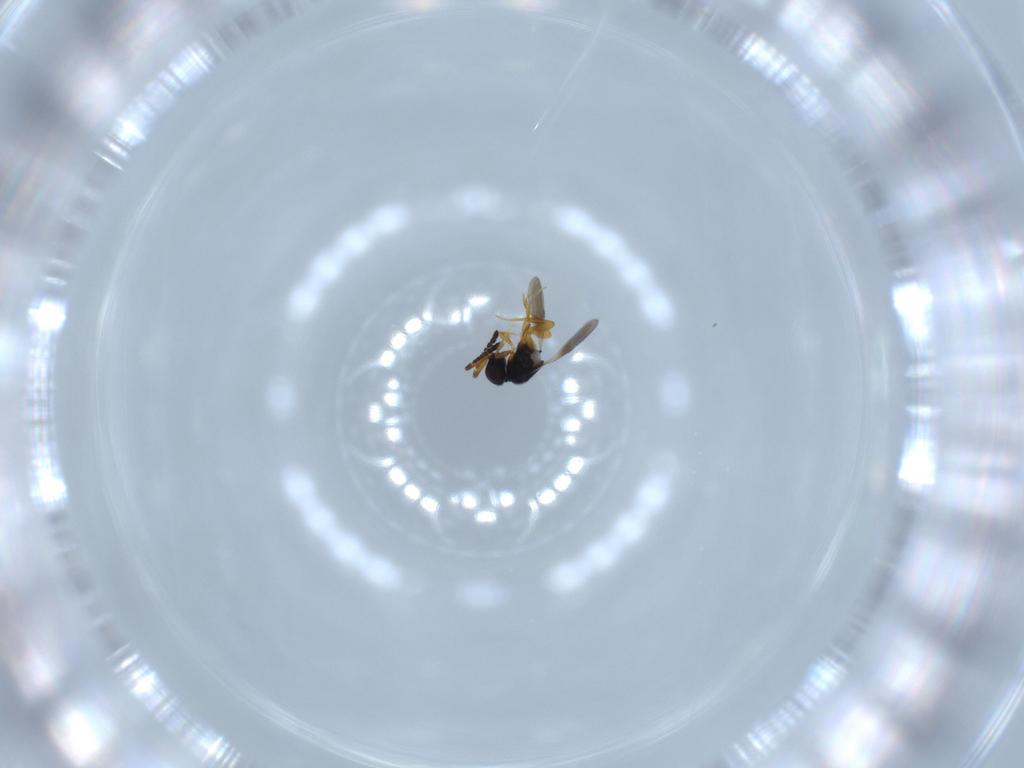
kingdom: Animalia
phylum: Arthropoda
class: Insecta
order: Hymenoptera
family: Scelionidae
